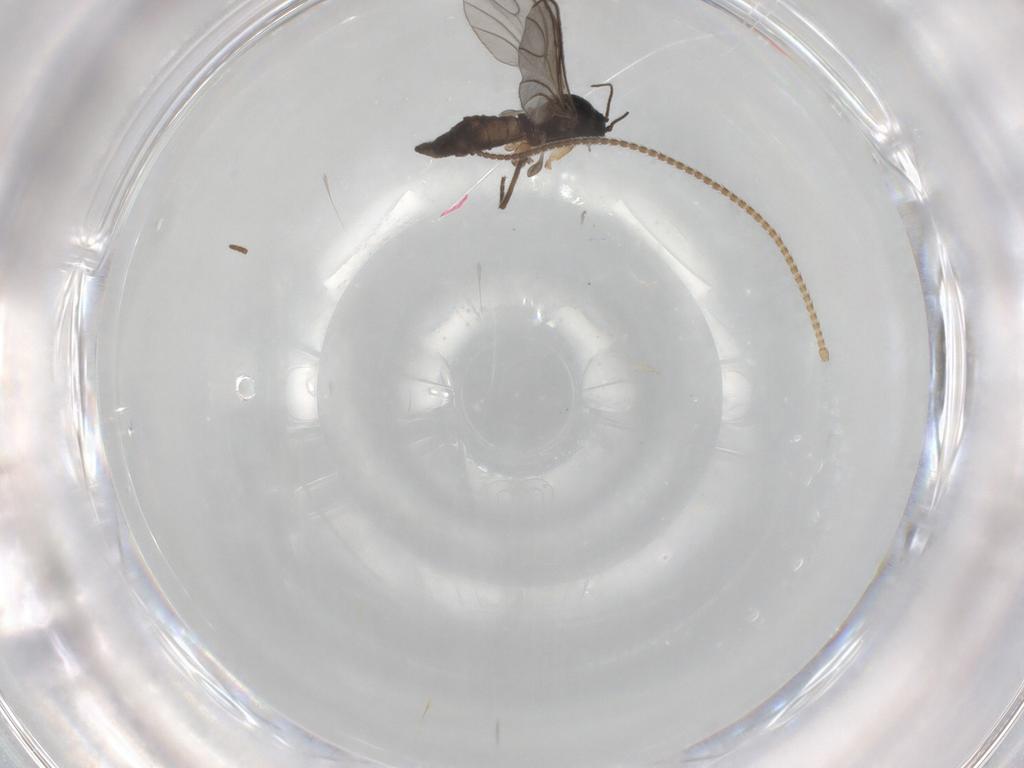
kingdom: Animalia
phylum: Arthropoda
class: Insecta
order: Diptera
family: Sciaridae
